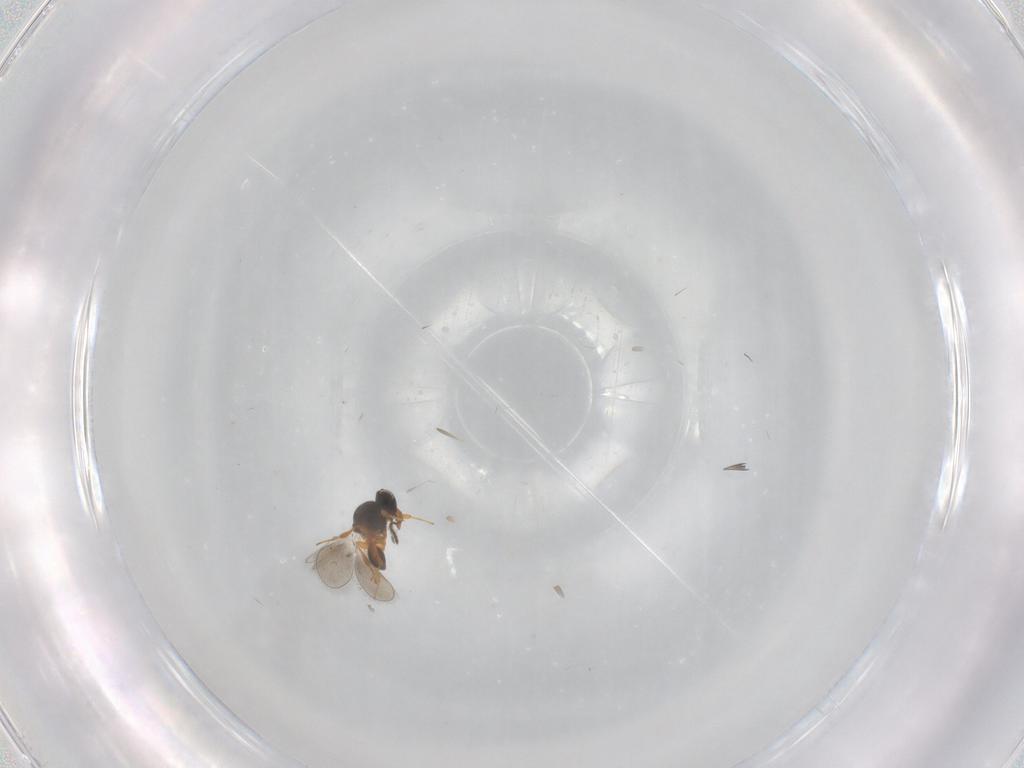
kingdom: Animalia
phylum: Arthropoda
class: Insecta
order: Hymenoptera
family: Platygastridae
